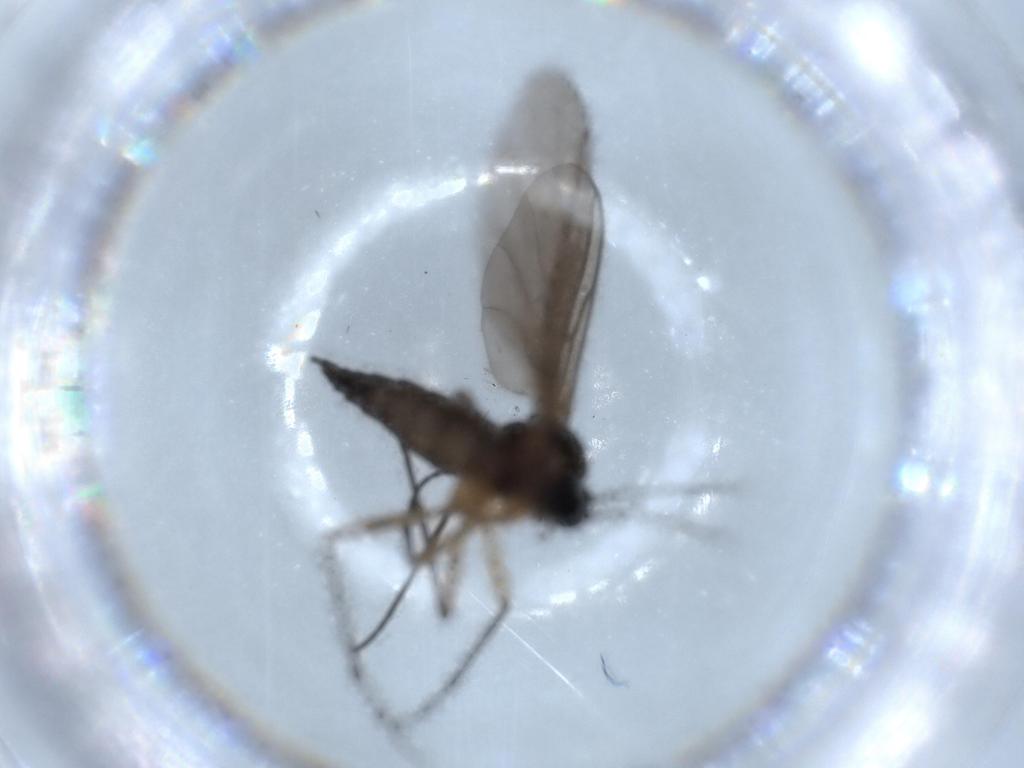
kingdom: Animalia
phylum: Arthropoda
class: Insecta
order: Diptera
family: Sciaridae
